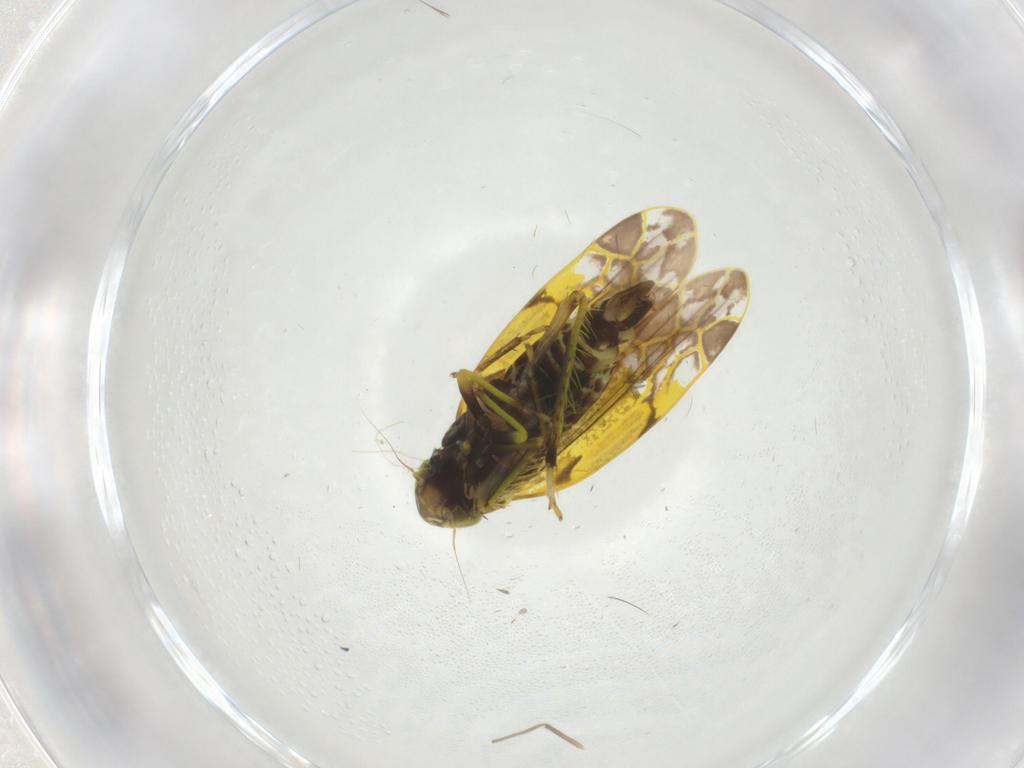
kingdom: Animalia
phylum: Arthropoda
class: Insecta
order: Hemiptera
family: Cicadellidae
